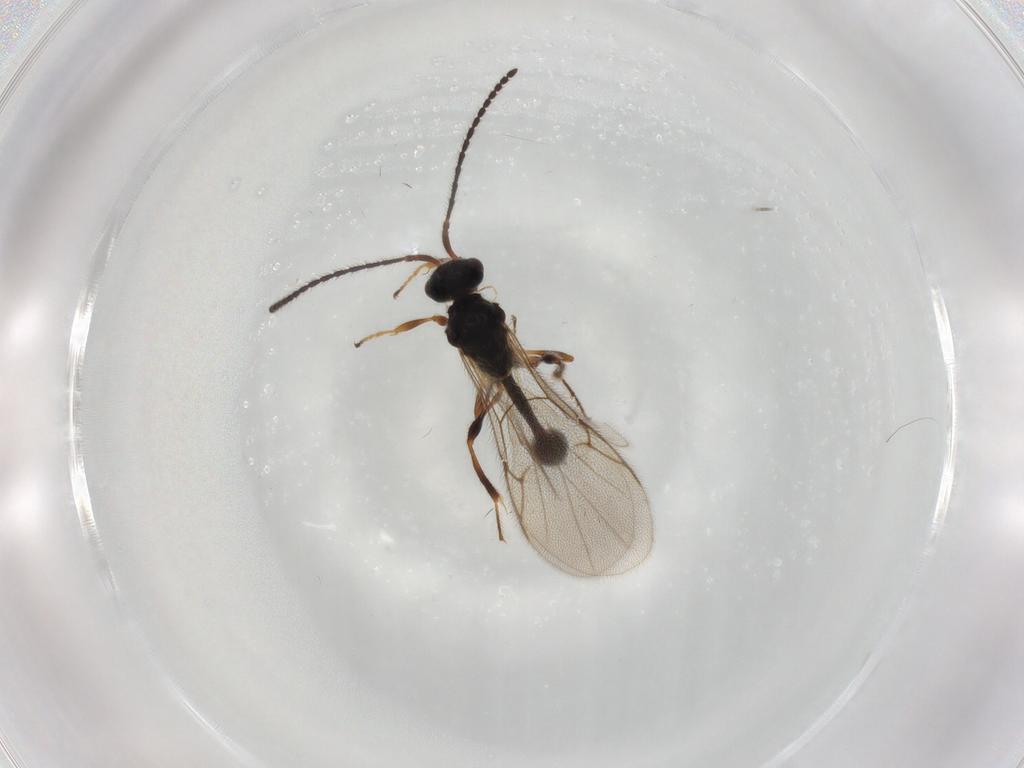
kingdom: Animalia
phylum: Arthropoda
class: Insecta
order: Hymenoptera
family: Diapriidae
